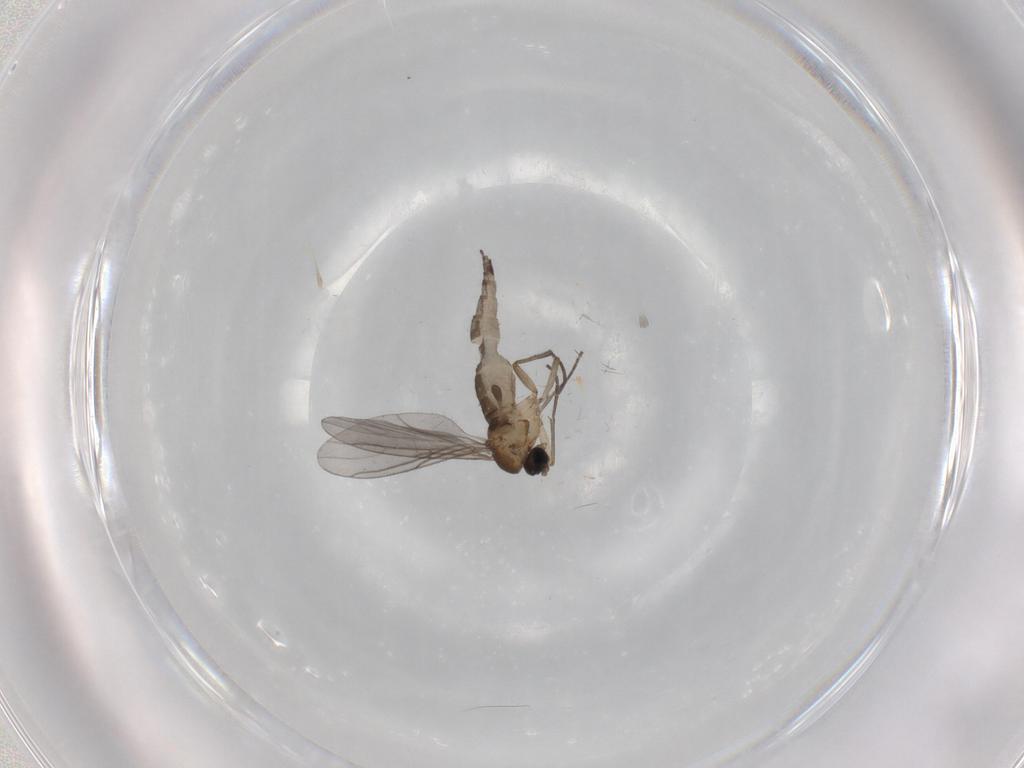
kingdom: Animalia
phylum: Arthropoda
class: Insecta
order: Diptera
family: Sciaridae
